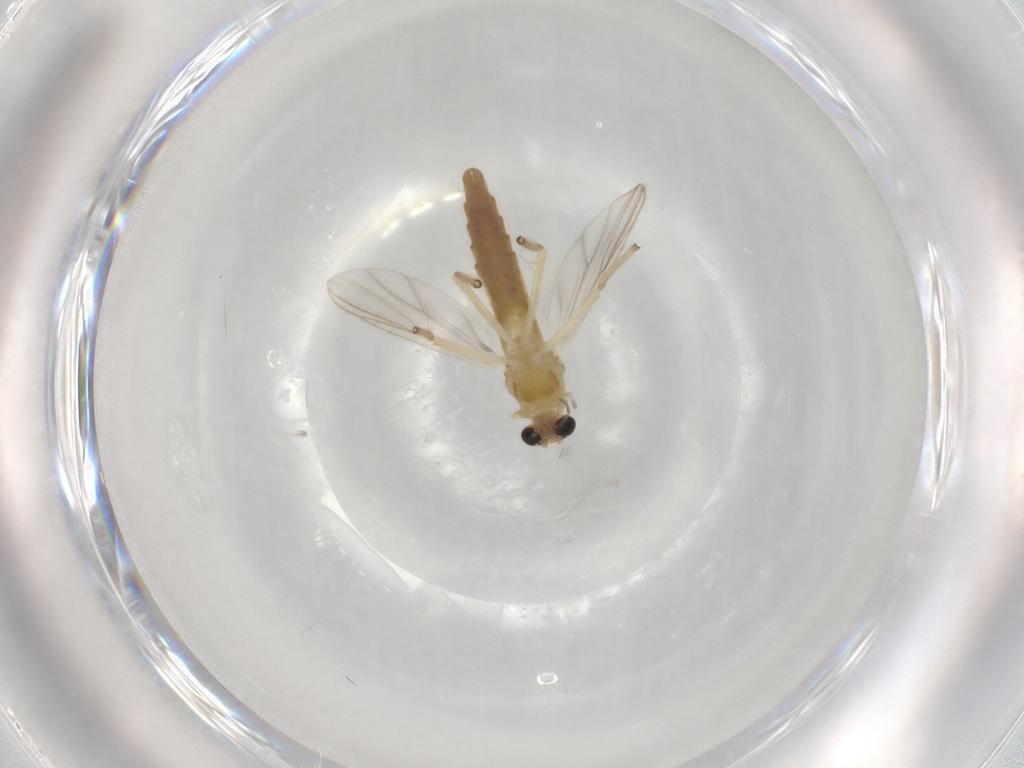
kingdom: Animalia
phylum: Arthropoda
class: Insecta
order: Diptera
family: Chironomidae
